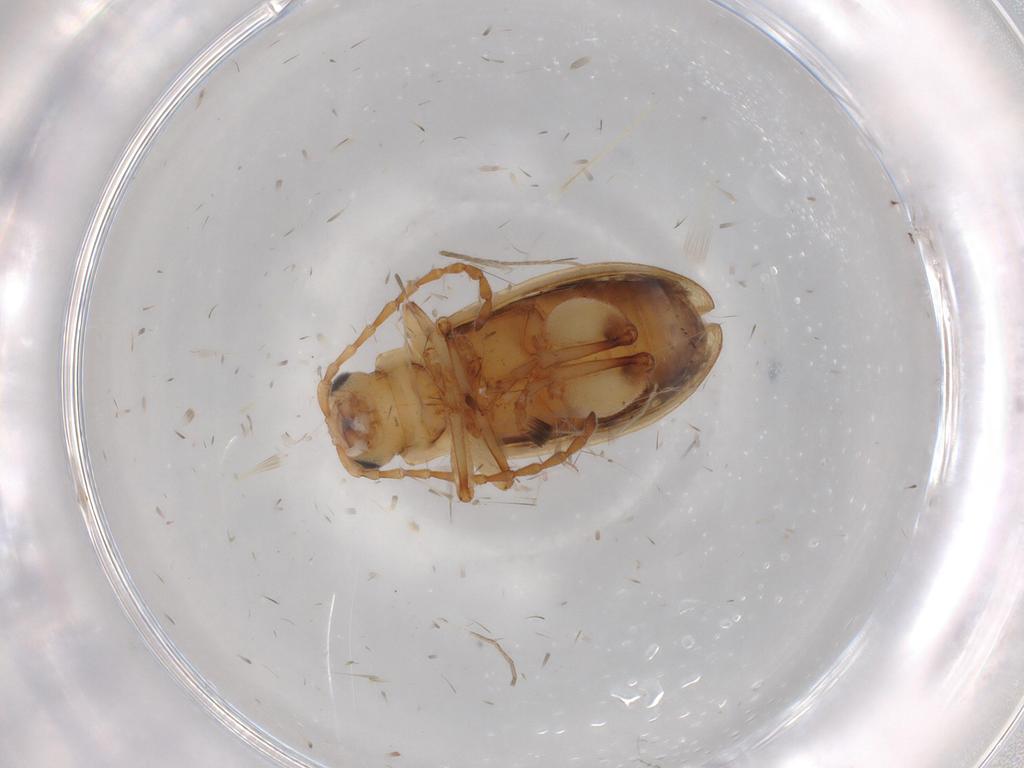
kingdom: Animalia
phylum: Arthropoda
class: Insecta
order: Coleoptera
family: Chrysomelidae
